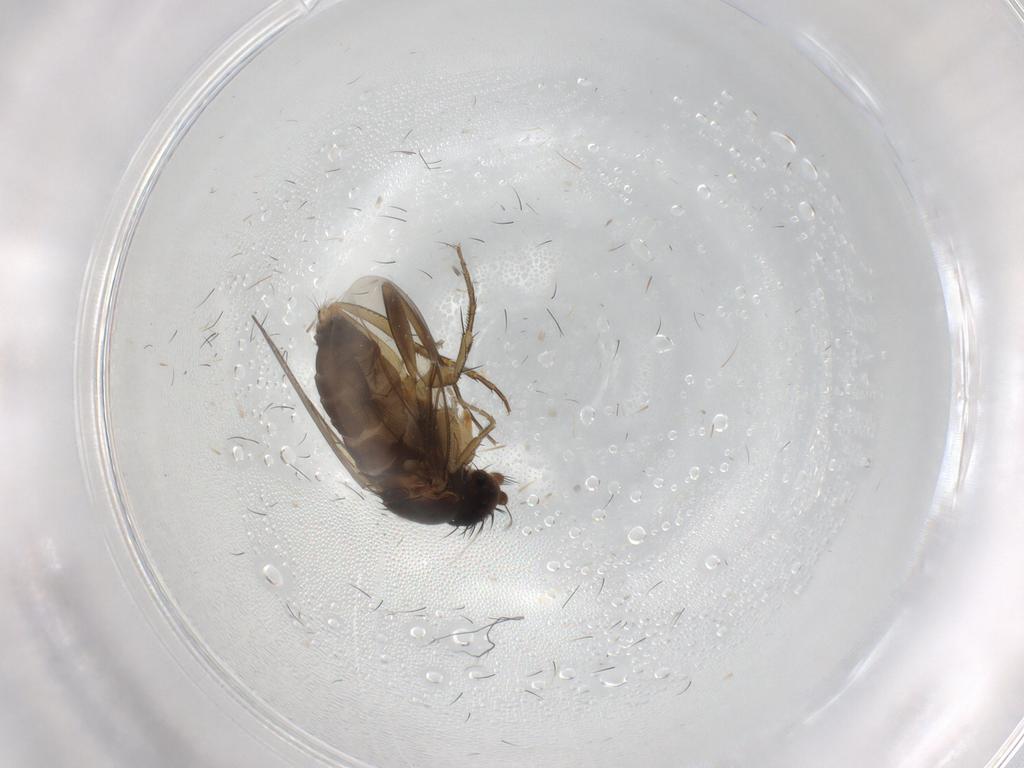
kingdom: Animalia
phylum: Arthropoda
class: Insecta
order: Diptera
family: Phoridae
